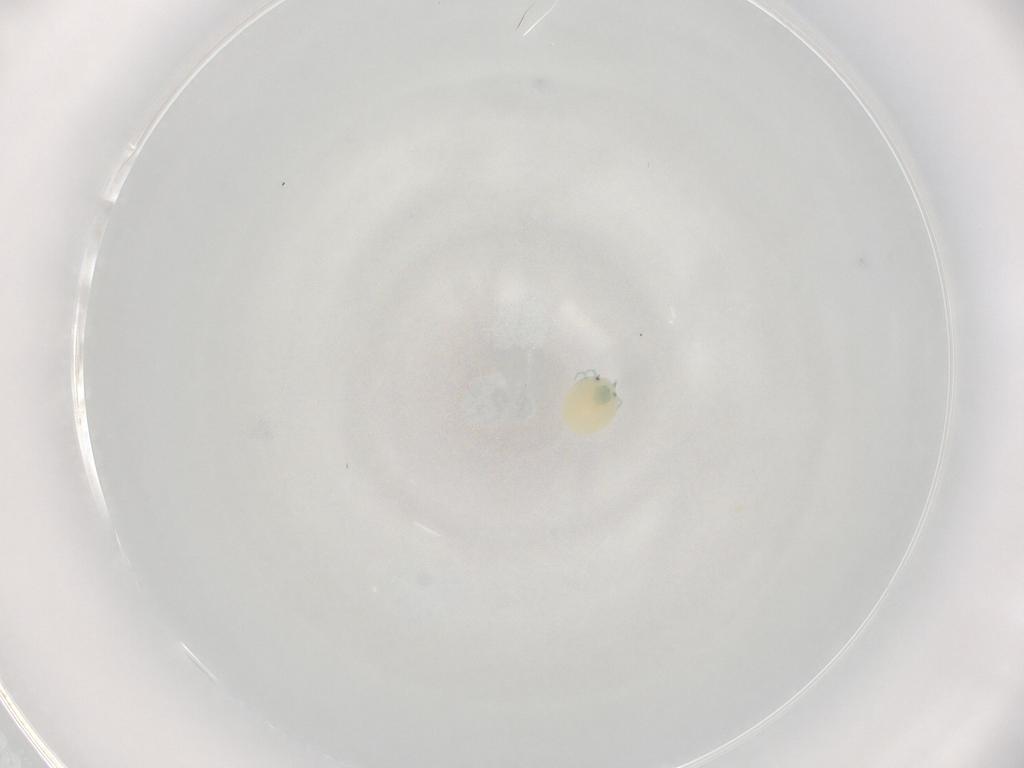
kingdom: Animalia
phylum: Arthropoda
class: Arachnida
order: Trombidiformes
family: Arrenuridae
